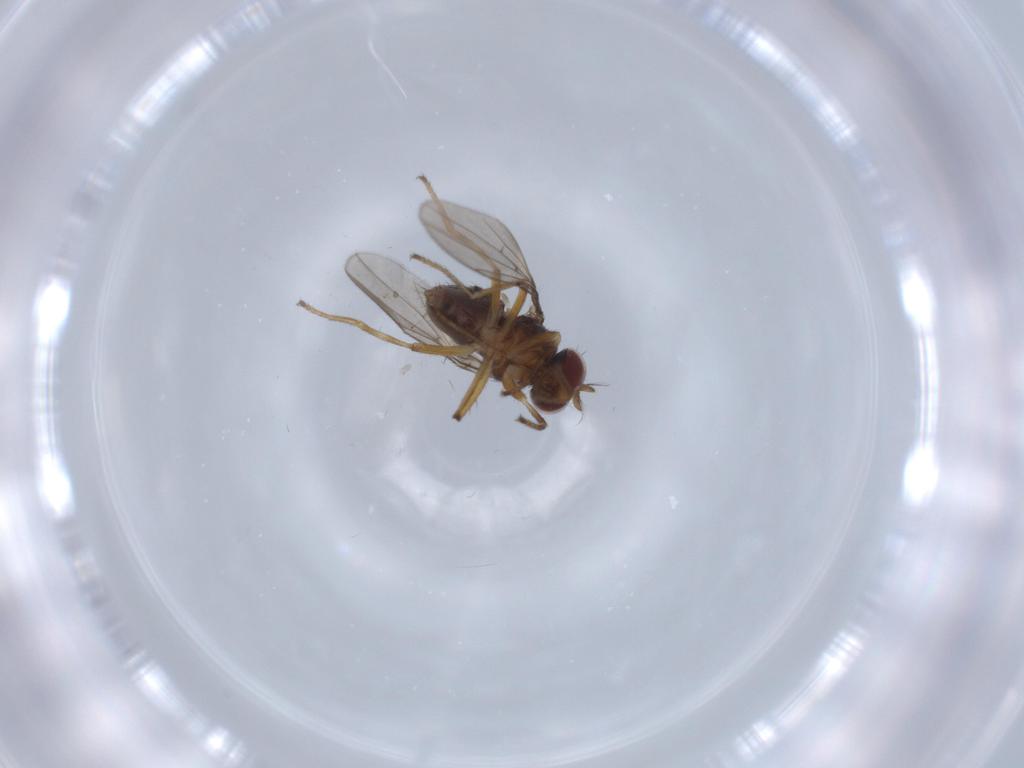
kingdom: Animalia
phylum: Arthropoda
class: Insecta
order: Diptera
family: Ephydridae
